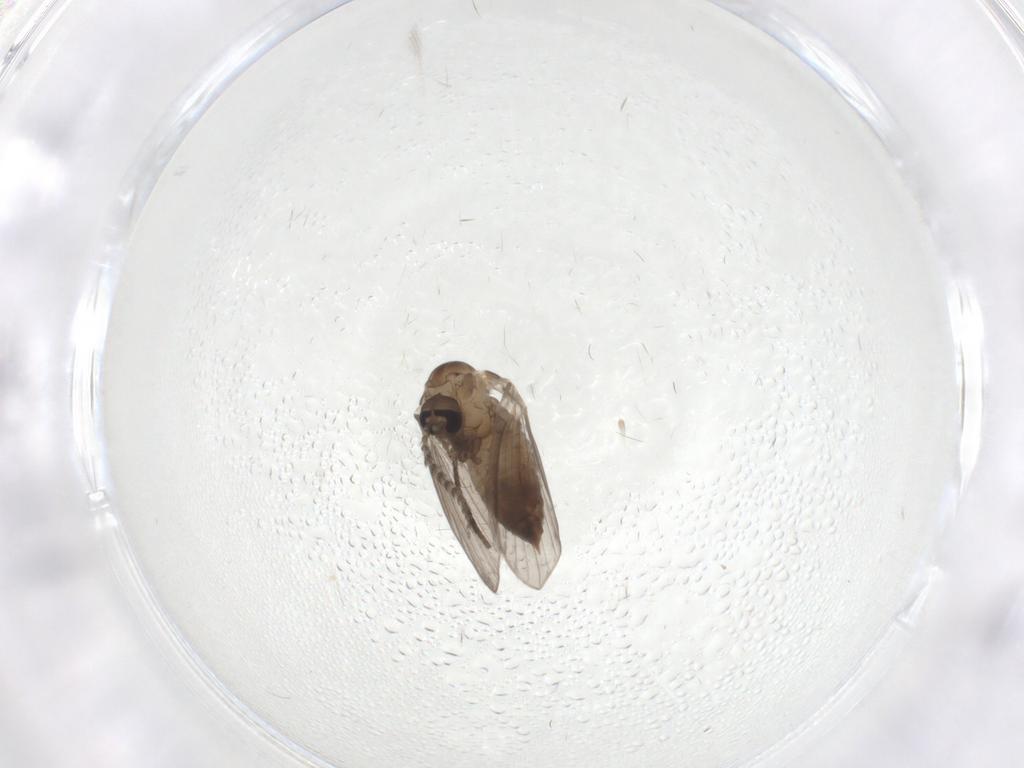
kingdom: Animalia
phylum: Arthropoda
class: Insecta
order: Diptera
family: Psychodidae
